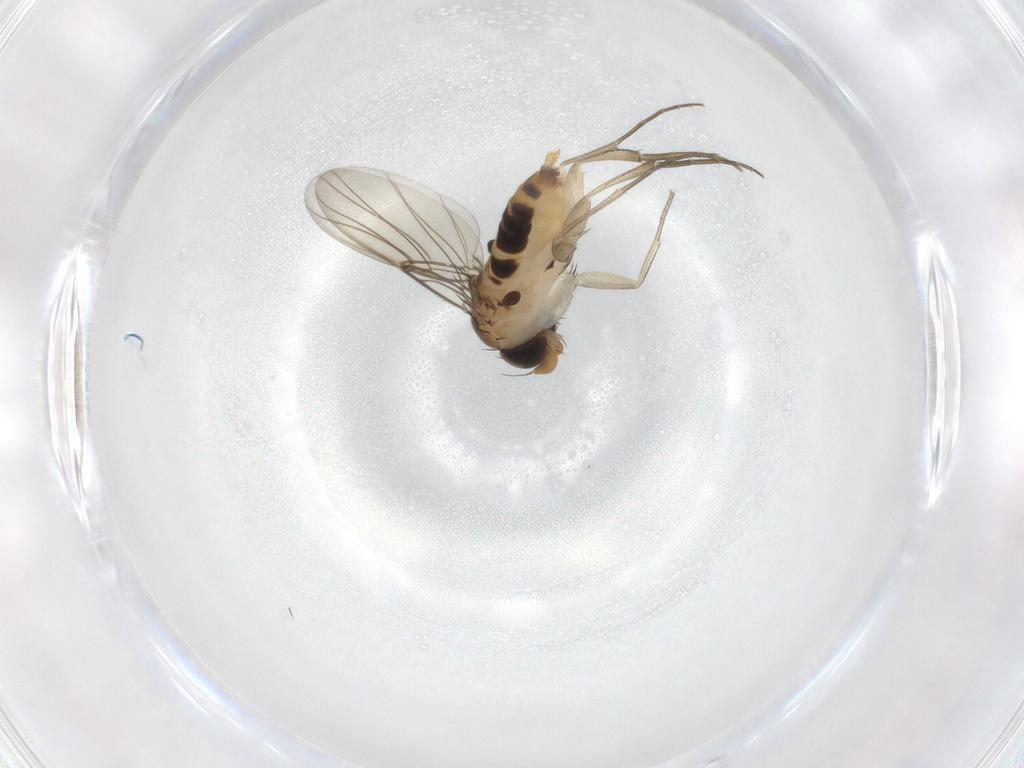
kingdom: Animalia
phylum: Arthropoda
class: Insecta
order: Diptera
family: Phoridae
